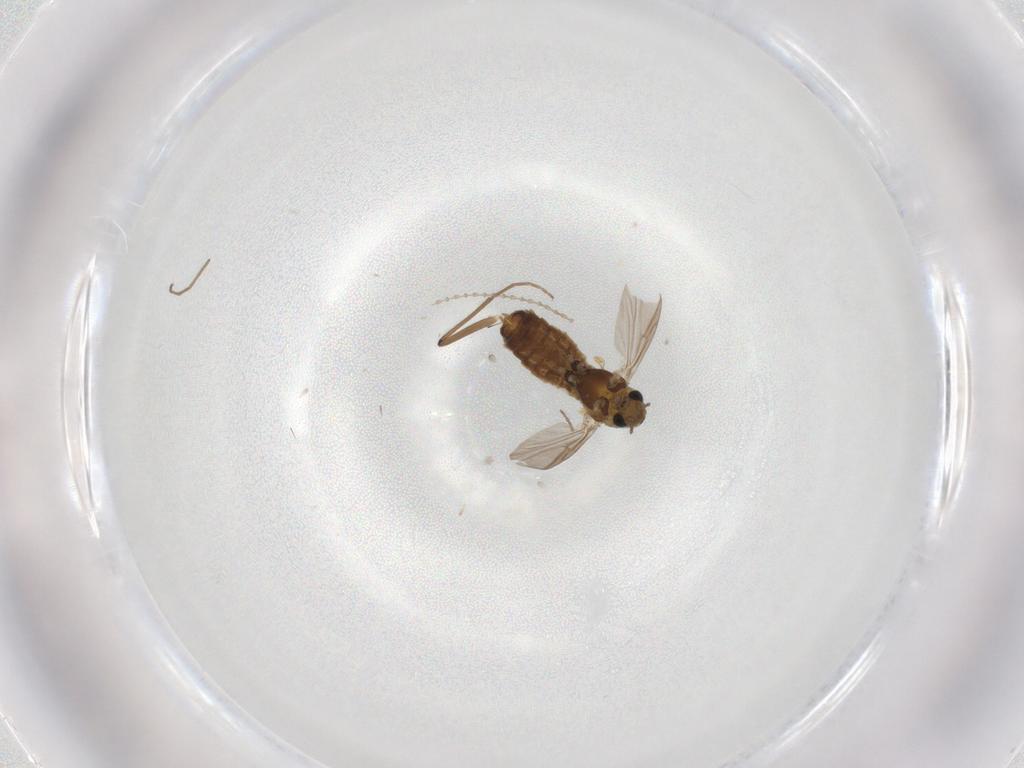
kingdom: Animalia
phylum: Arthropoda
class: Insecta
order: Diptera
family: Chironomidae
